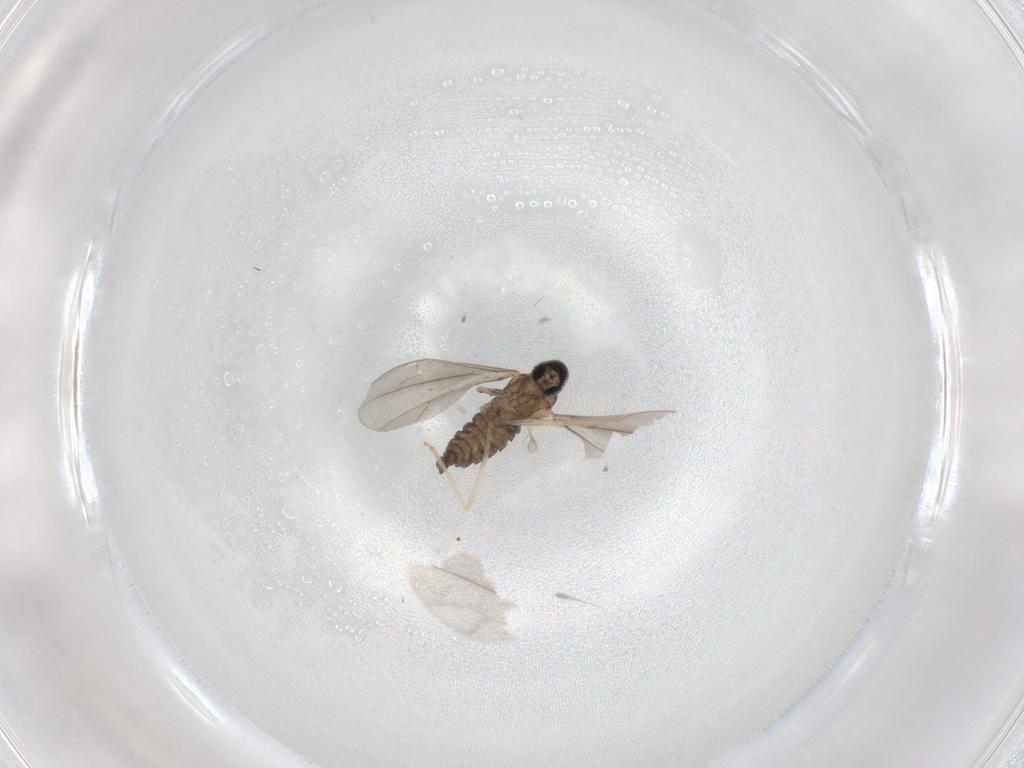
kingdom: Animalia
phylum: Arthropoda
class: Insecta
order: Diptera
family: Cecidomyiidae
